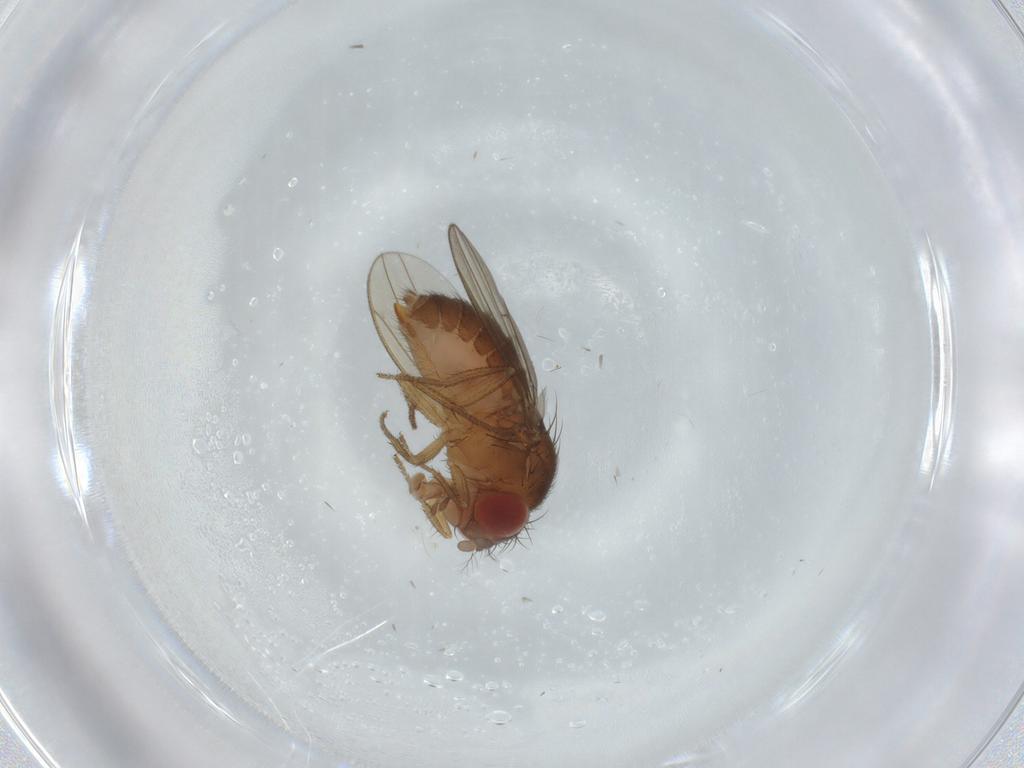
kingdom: Animalia
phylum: Arthropoda
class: Insecta
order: Diptera
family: Drosophilidae
